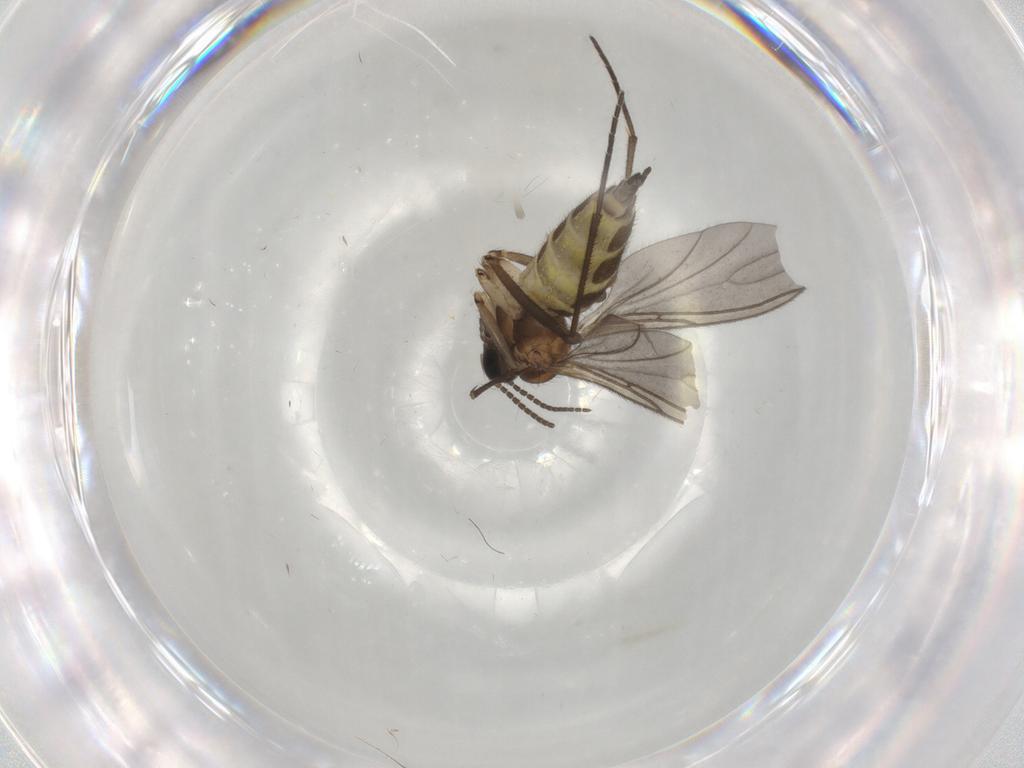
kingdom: Animalia
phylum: Arthropoda
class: Insecta
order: Diptera
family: Sciaridae
